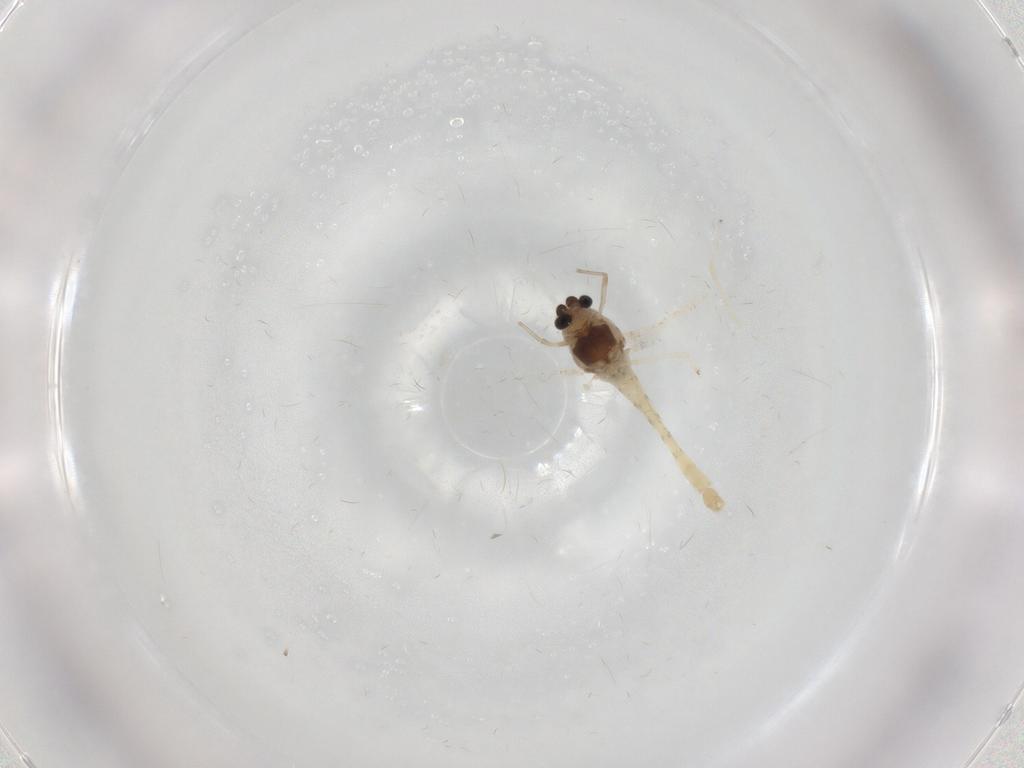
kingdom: Animalia
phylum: Arthropoda
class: Insecta
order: Diptera
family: Chironomidae
